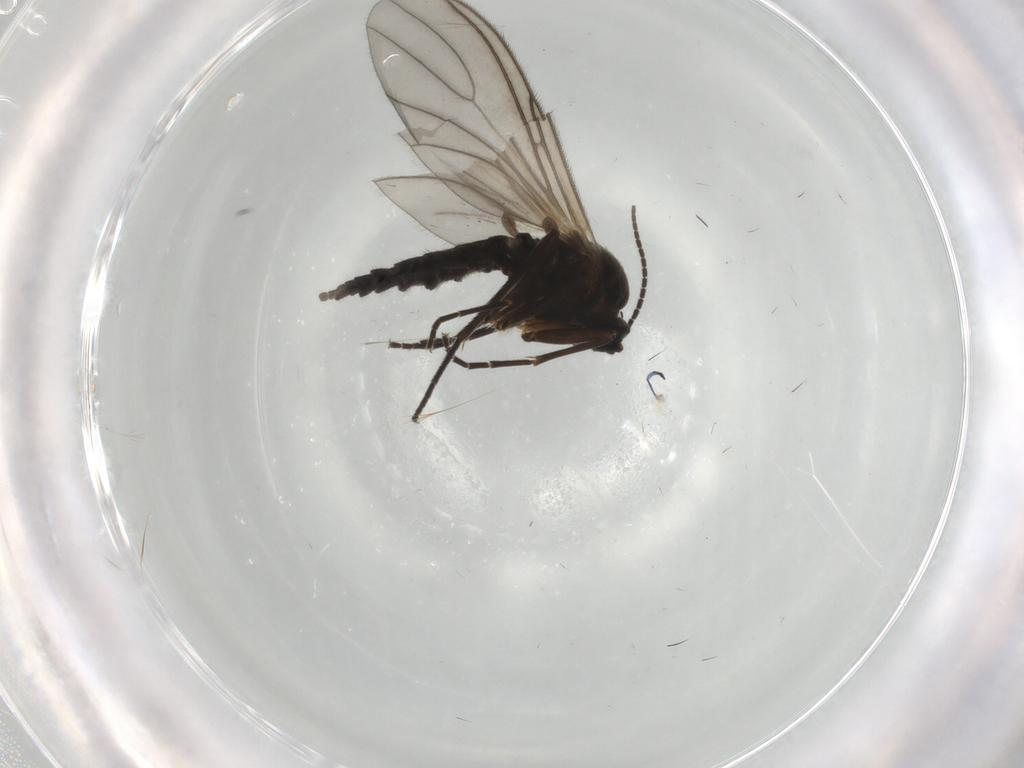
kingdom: Animalia
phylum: Arthropoda
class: Insecta
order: Diptera
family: Sciaridae
